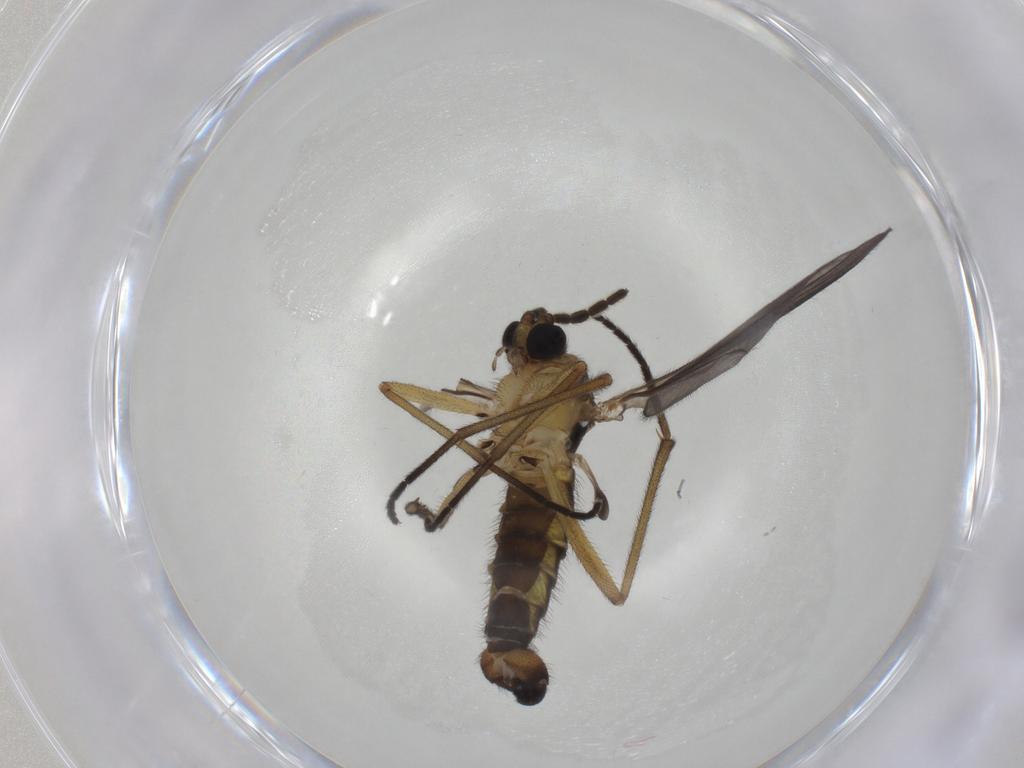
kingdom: Animalia
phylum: Arthropoda
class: Insecta
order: Diptera
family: Sciaridae
